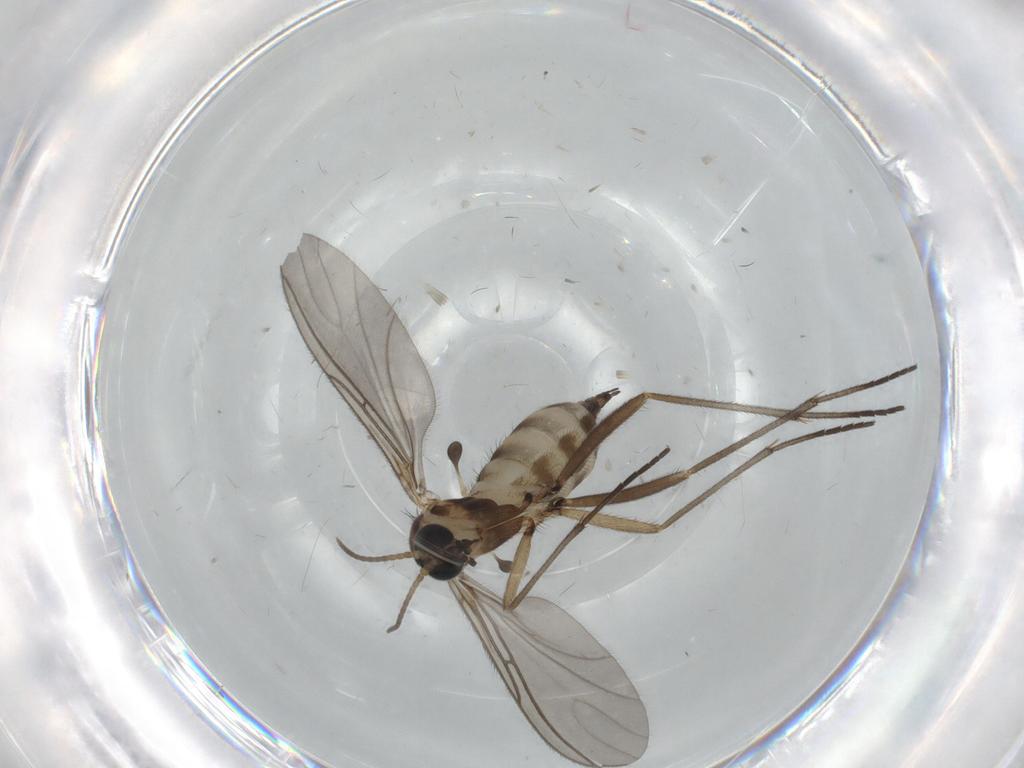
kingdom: Animalia
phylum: Arthropoda
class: Insecta
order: Diptera
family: Sciaridae
